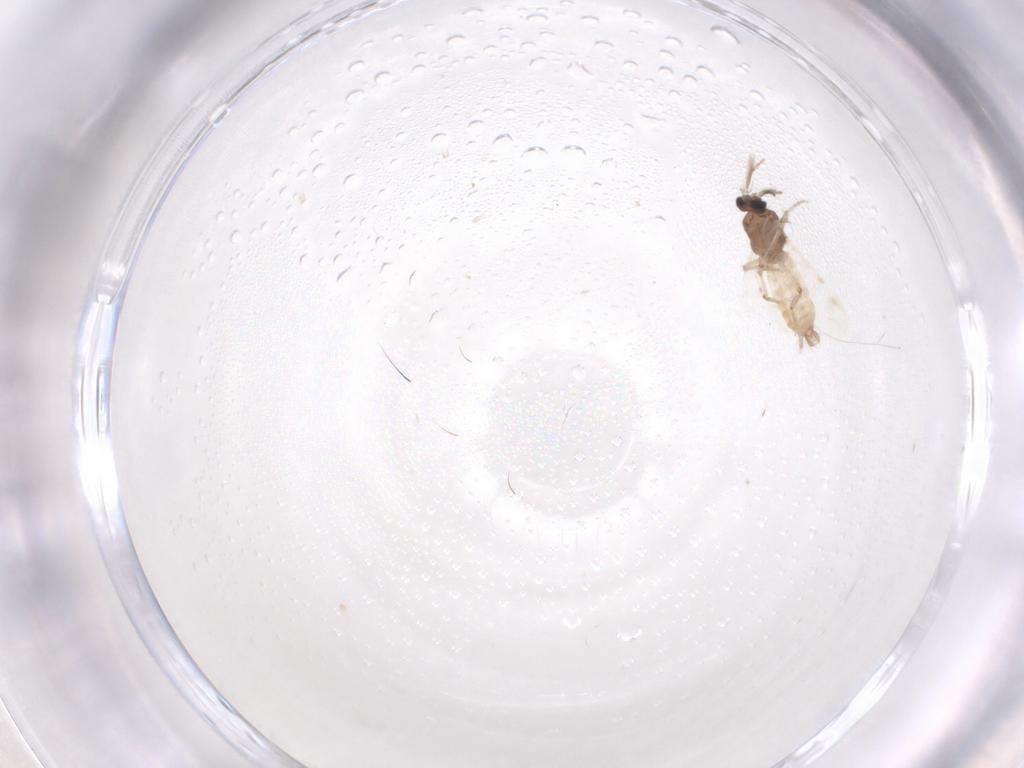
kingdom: Animalia
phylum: Arthropoda
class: Insecta
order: Diptera
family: Ceratopogonidae
